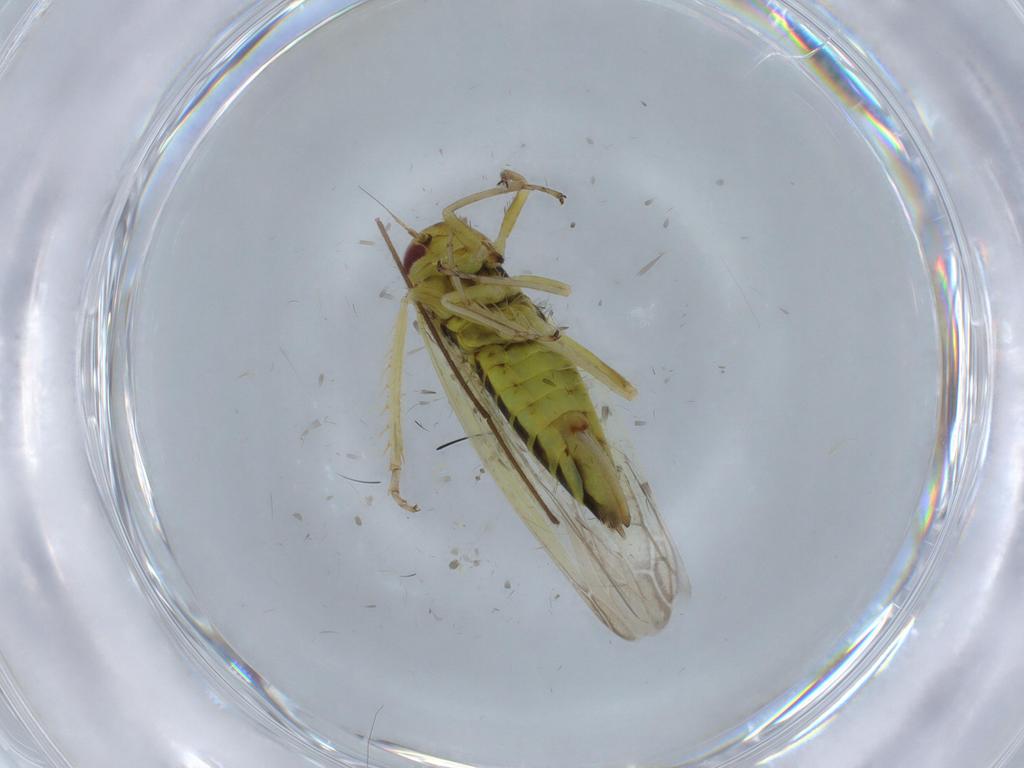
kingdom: Animalia
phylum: Arthropoda
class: Insecta
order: Hemiptera
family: Cicadellidae
